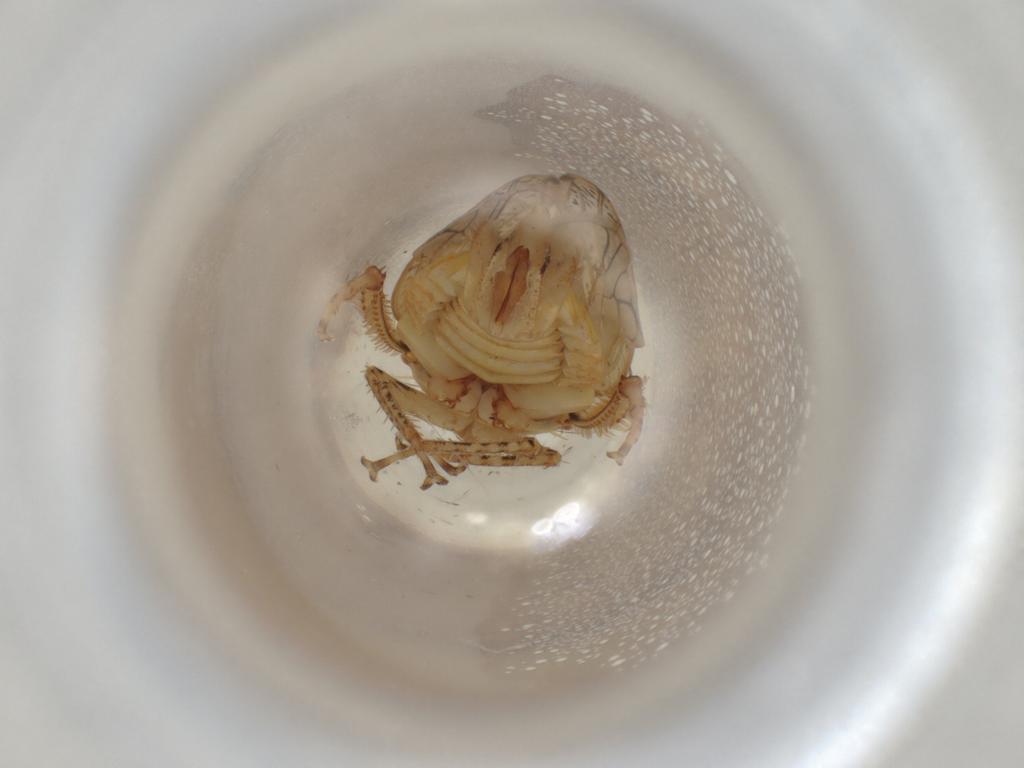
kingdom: Animalia
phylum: Arthropoda
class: Insecta
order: Hemiptera
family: Cicadellidae
